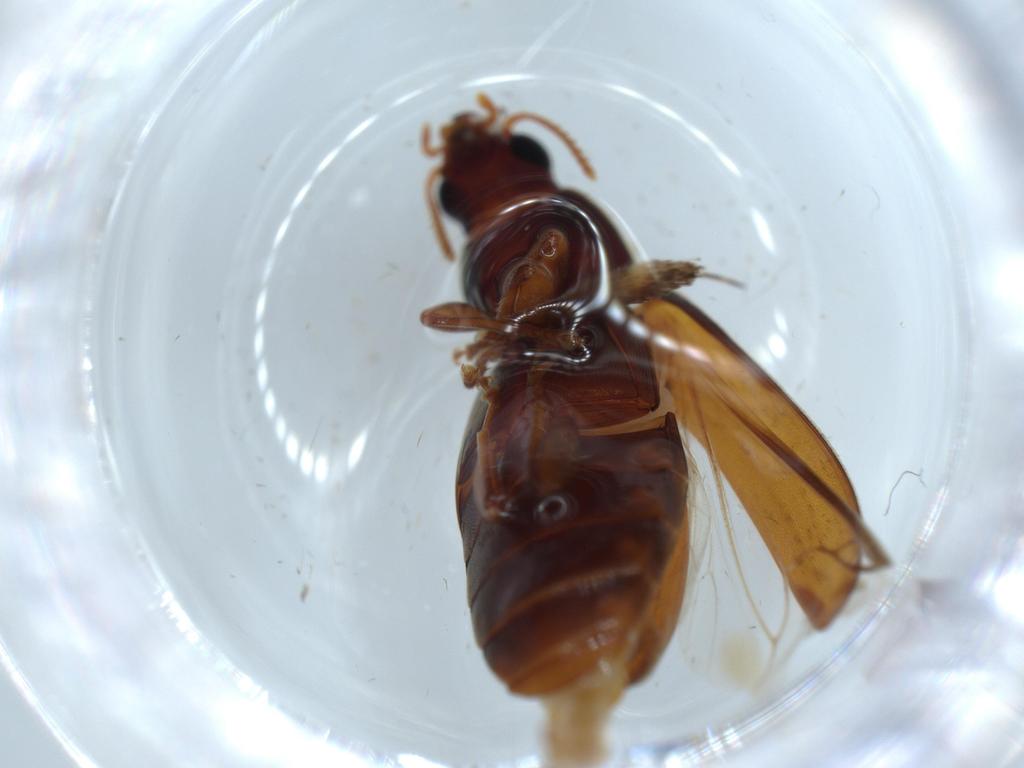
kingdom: Animalia
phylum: Arthropoda
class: Insecta
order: Coleoptera
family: Mycteridae
